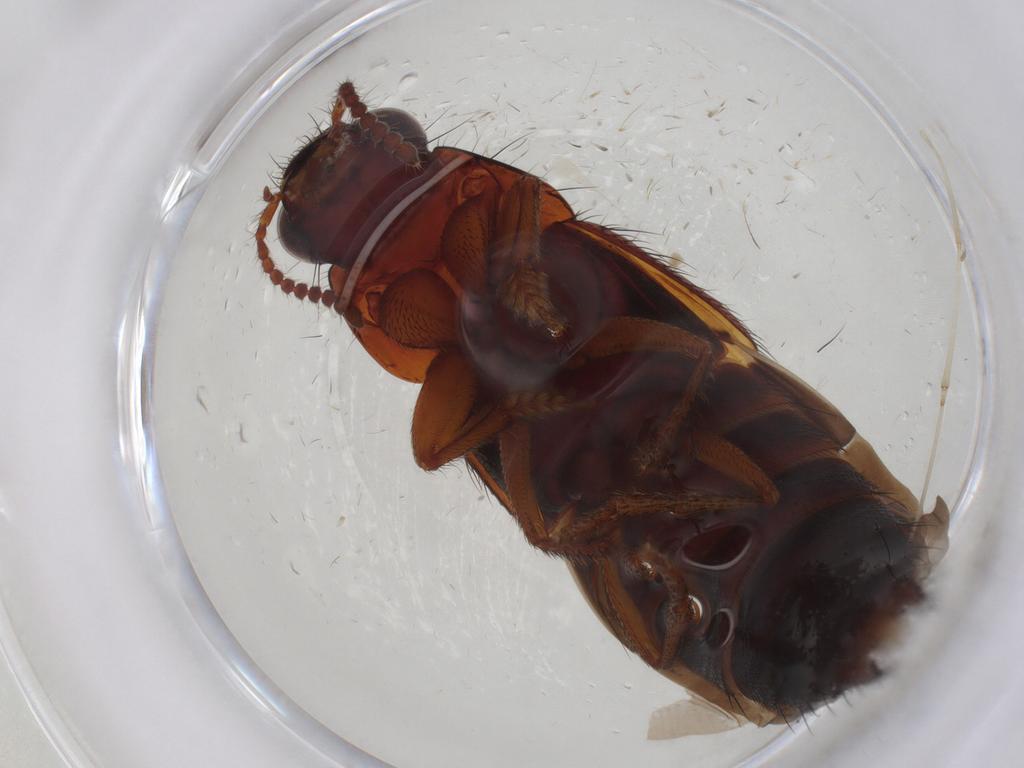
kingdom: Animalia
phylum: Arthropoda
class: Insecta
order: Coleoptera
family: Staphylinidae
